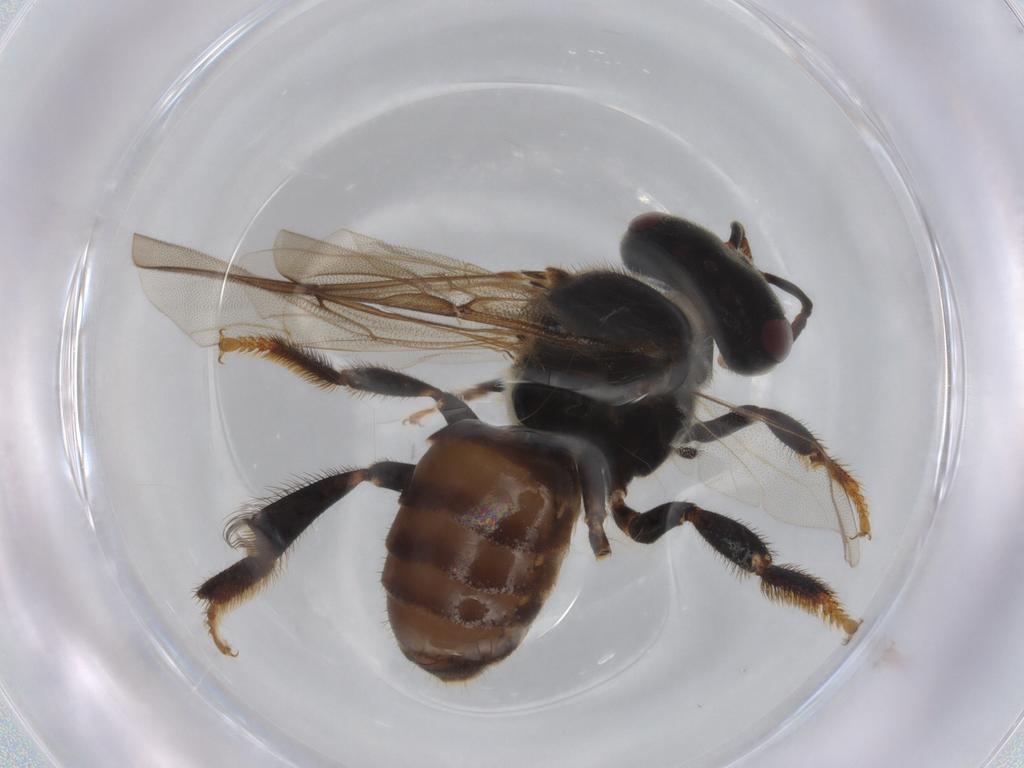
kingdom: Animalia
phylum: Arthropoda
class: Insecta
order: Hymenoptera
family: Apidae
